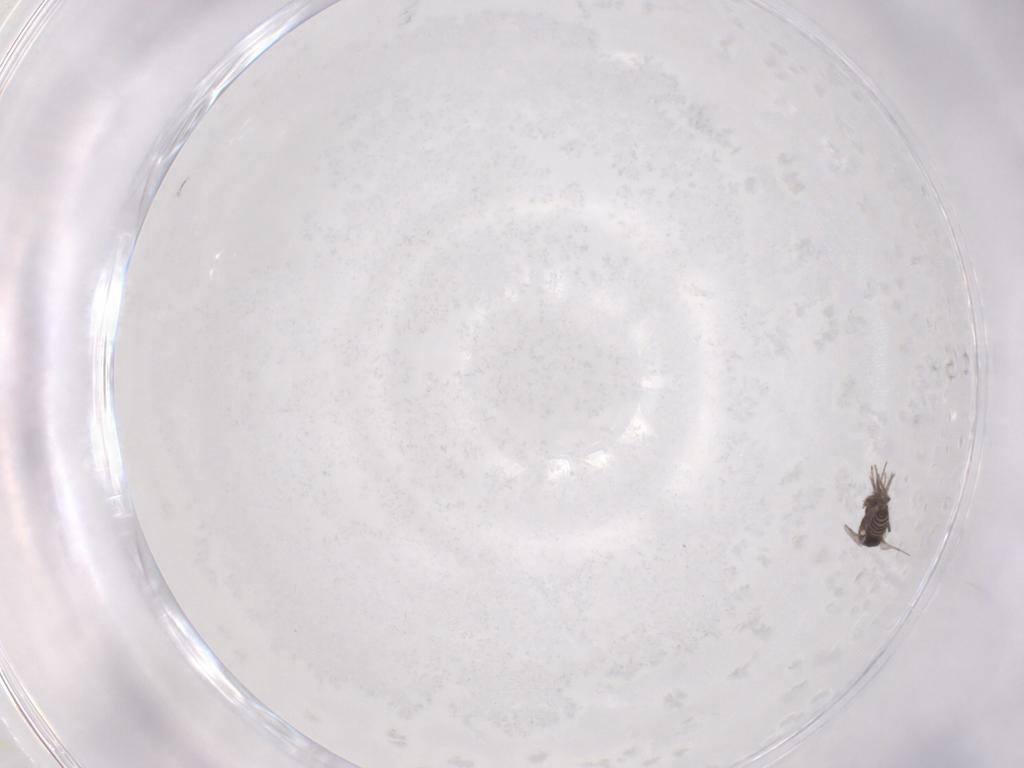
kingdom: Animalia
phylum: Arthropoda
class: Insecta
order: Diptera
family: Ceratopogonidae
